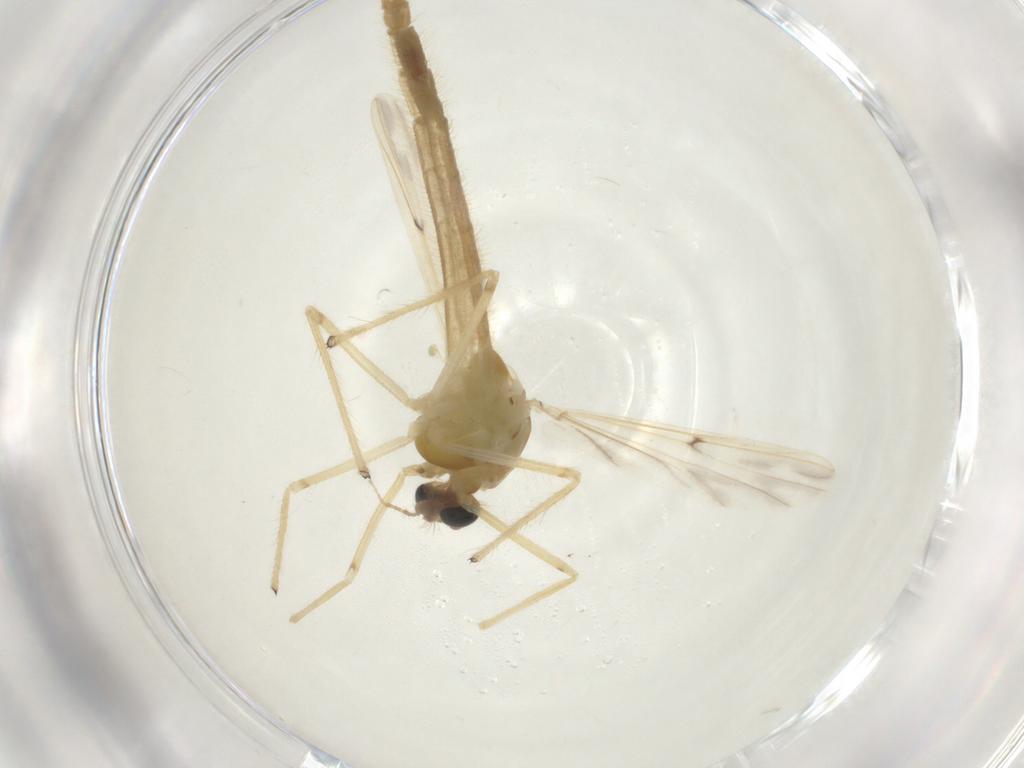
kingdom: Animalia
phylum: Arthropoda
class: Insecta
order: Diptera
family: Chironomidae
